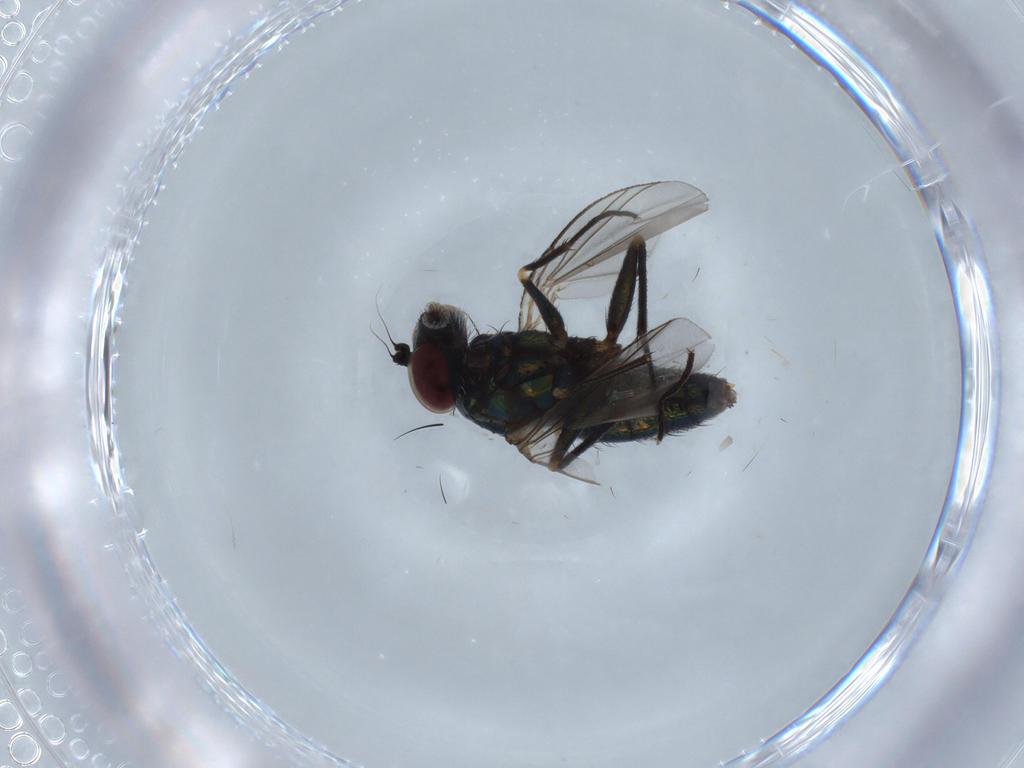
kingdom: Animalia
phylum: Arthropoda
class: Insecta
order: Diptera
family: Dolichopodidae
